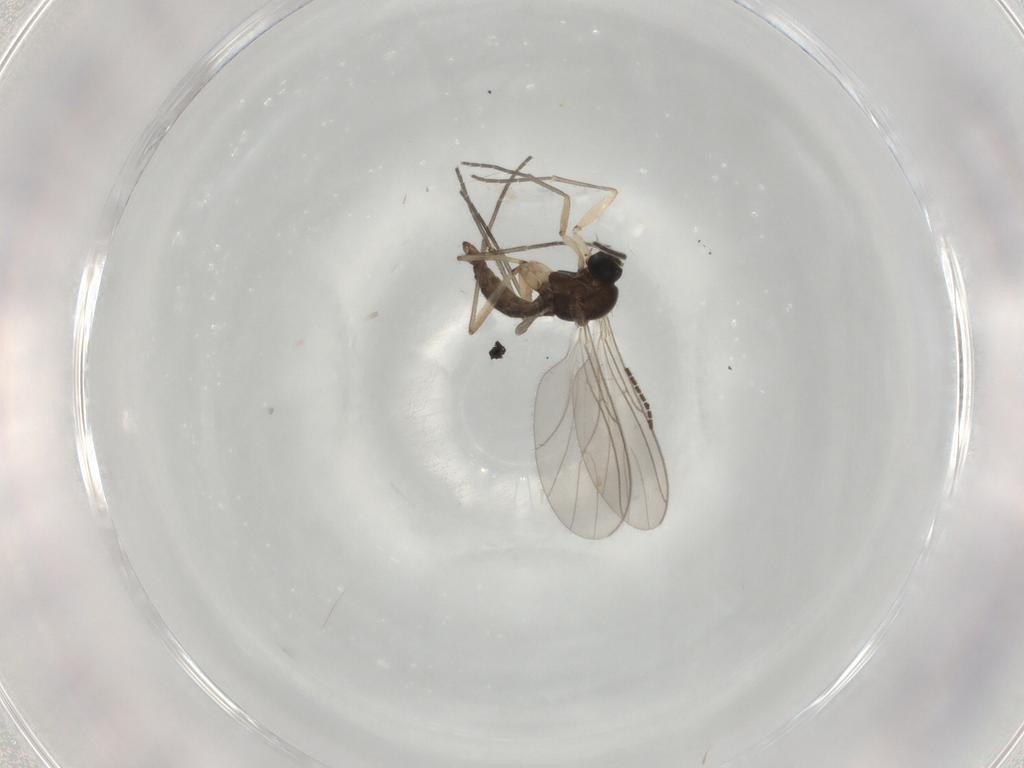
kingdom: Animalia
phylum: Arthropoda
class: Insecta
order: Diptera
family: Sciaridae
